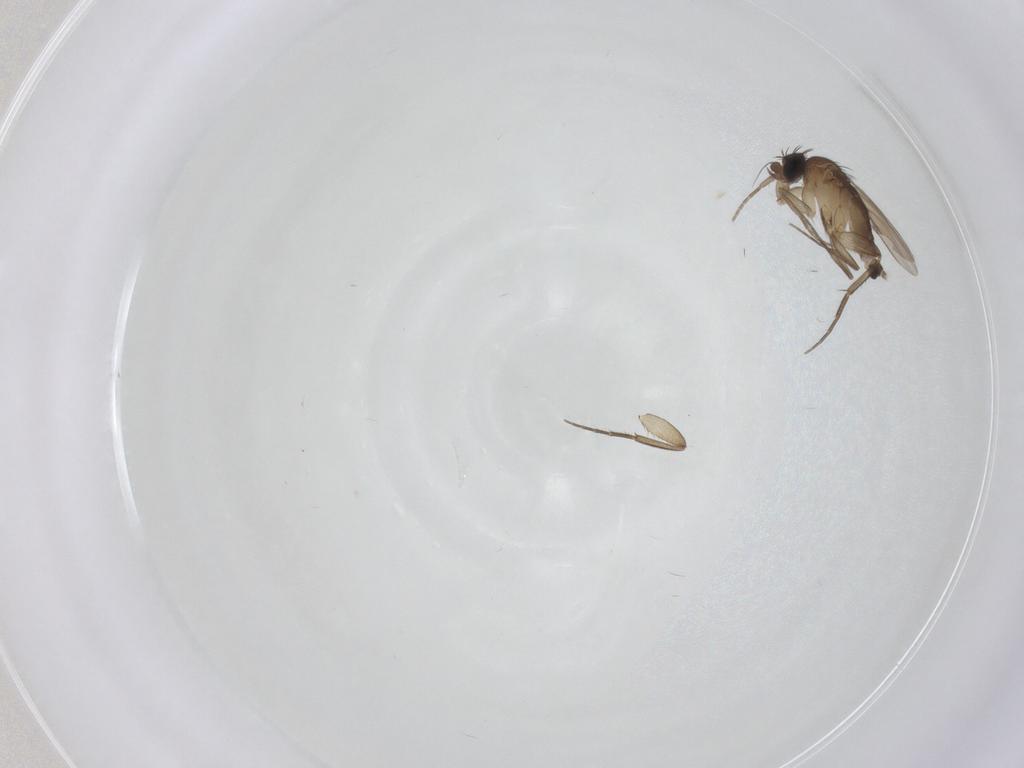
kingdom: Animalia
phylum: Arthropoda
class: Insecta
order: Diptera
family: Phoridae
